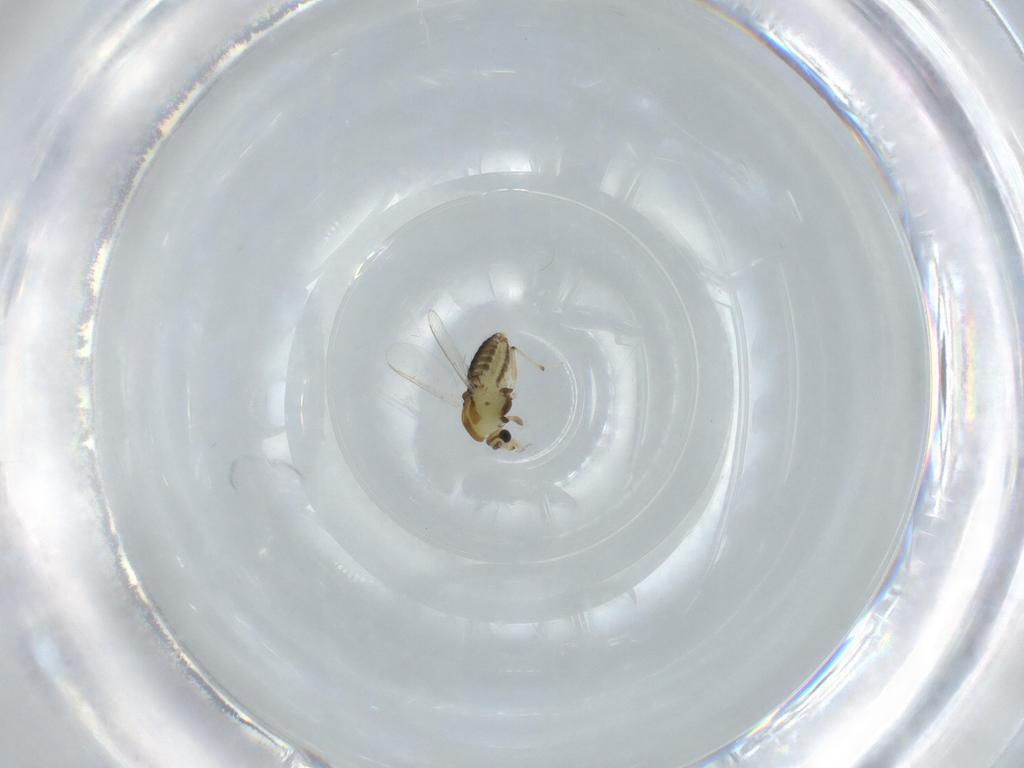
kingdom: Animalia
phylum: Arthropoda
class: Insecta
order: Diptera
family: Chironomidae
